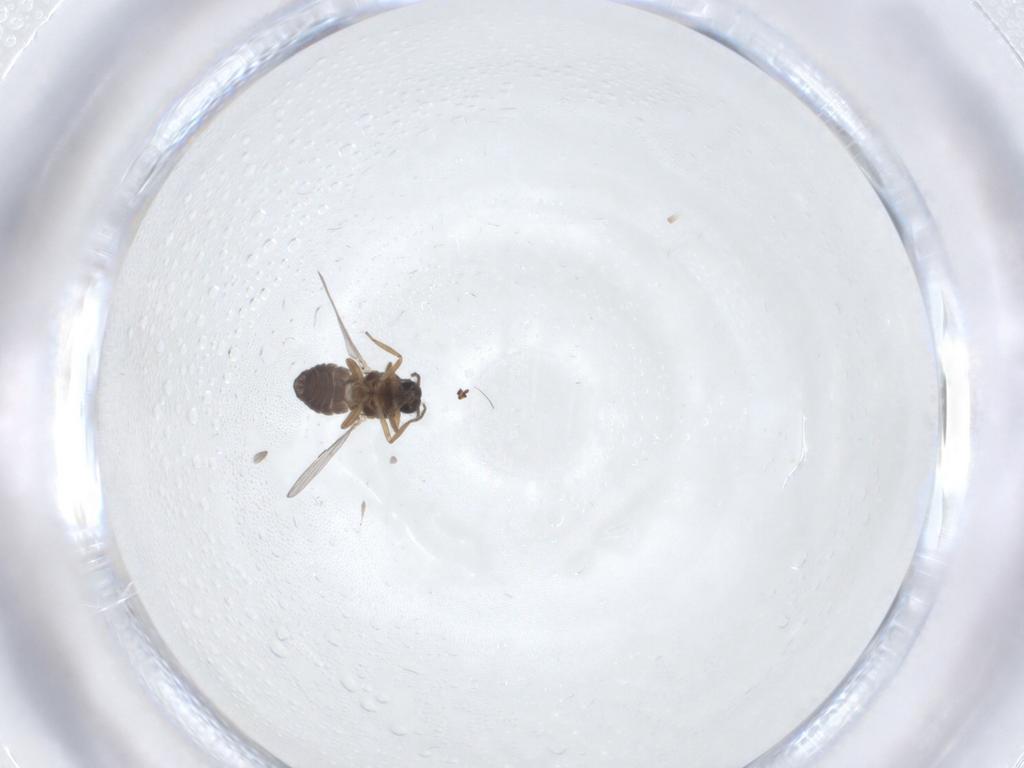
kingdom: Animalia
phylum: Arthropoda
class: Insecta
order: Diptera
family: Ceratopogonidae
